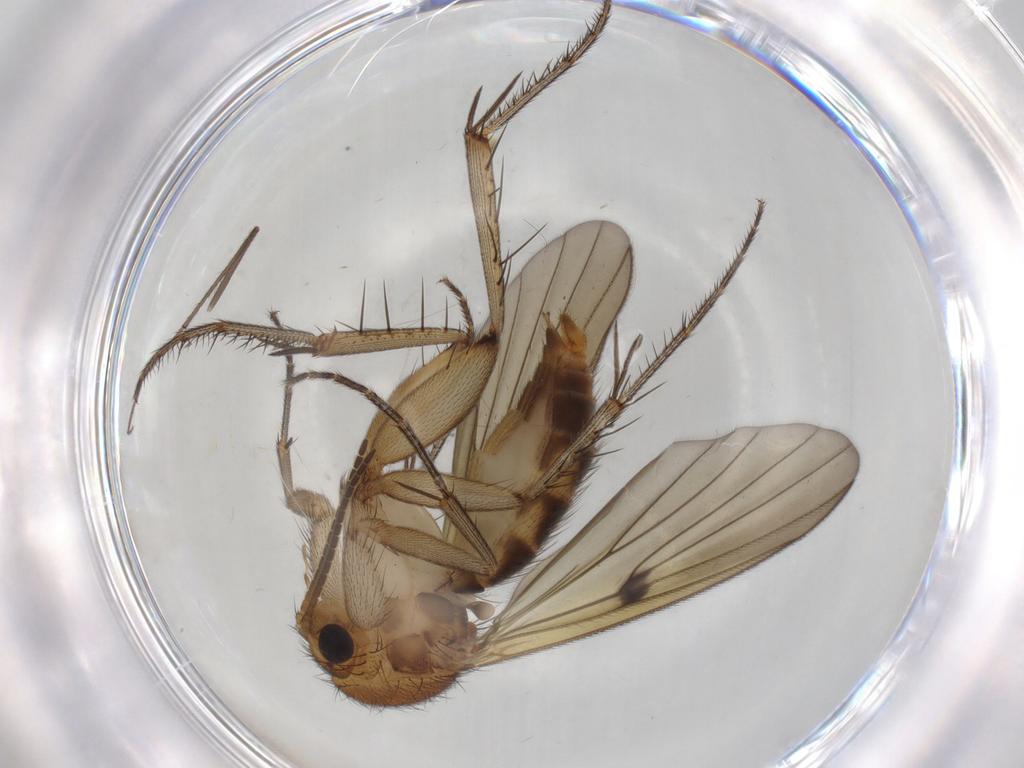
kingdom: Animalia
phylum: Arthropoda
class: Insecta
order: Diptera
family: Mycetophilidae
